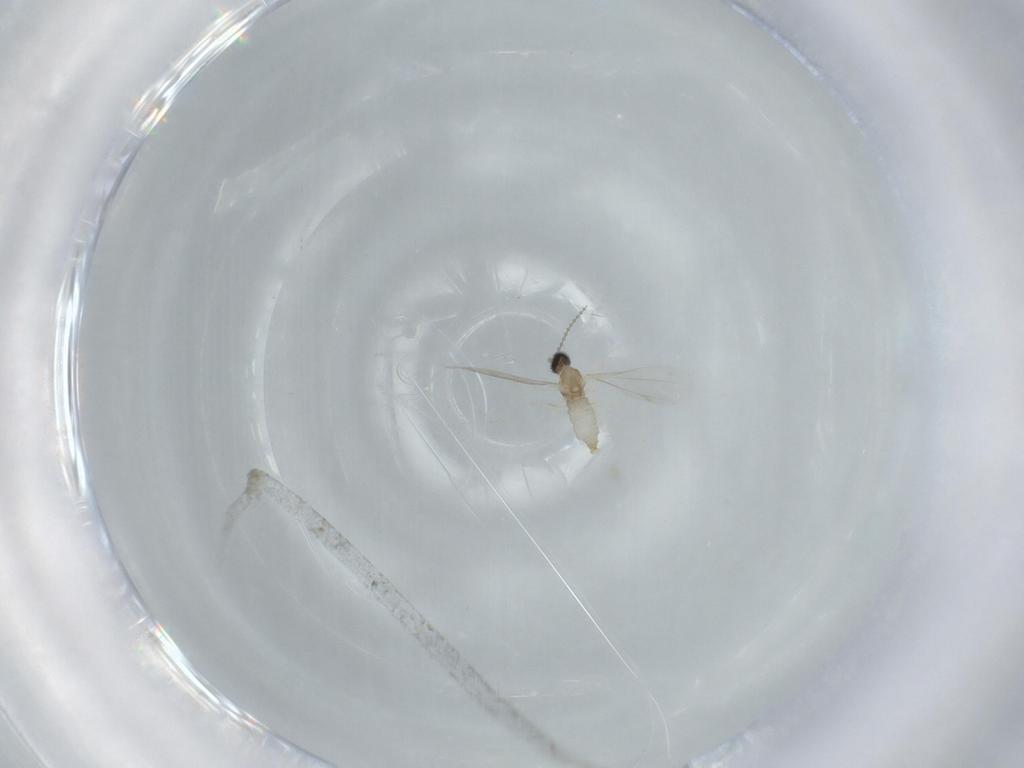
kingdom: Animalia
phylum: Arthropoda
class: Insecta
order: Diptera
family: Cecidomyiidae
